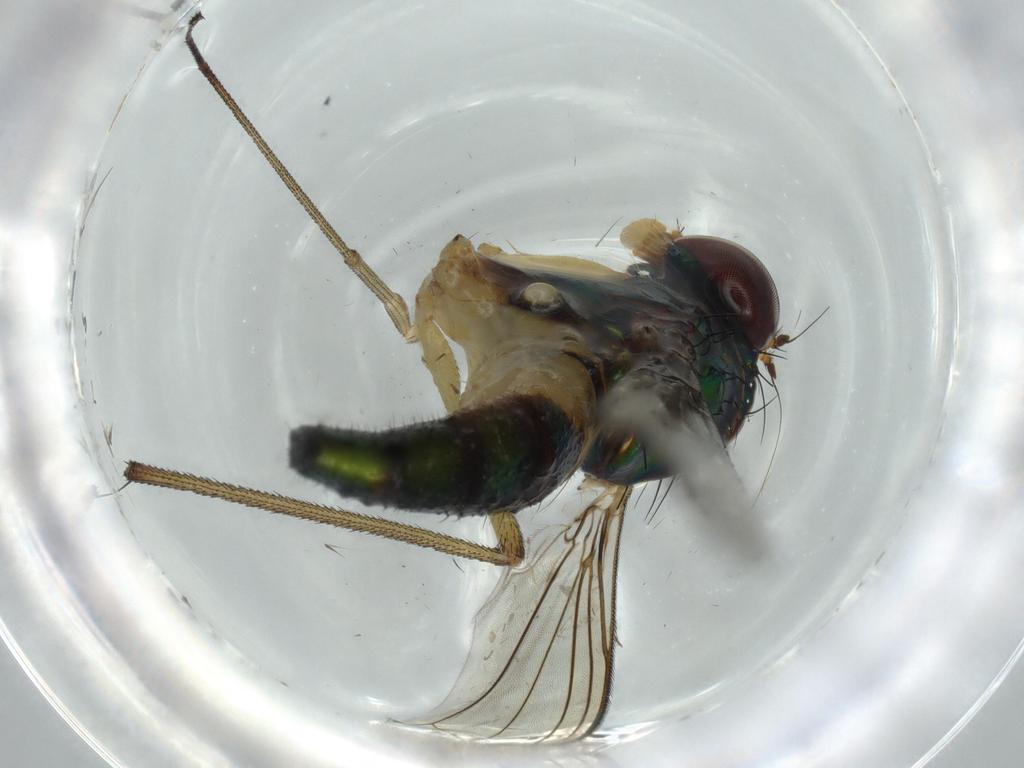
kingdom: Animalia
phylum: Arthropoda
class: Insecta
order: Diptera
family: Dolichopodidae
